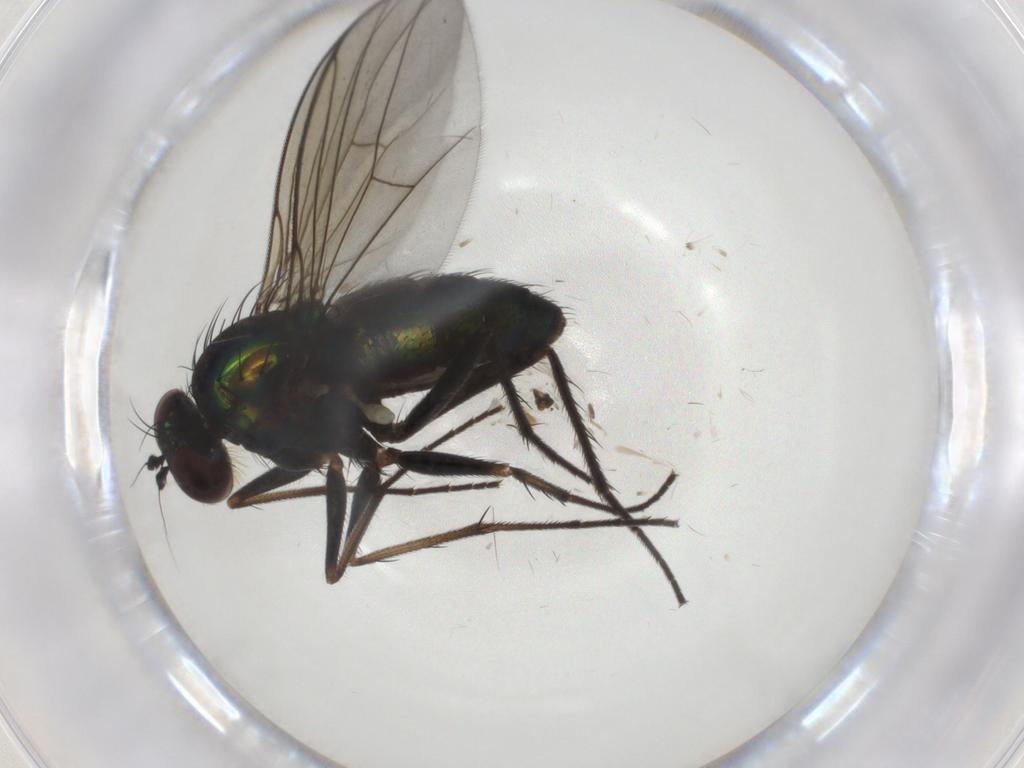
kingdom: Animalia
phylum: Arthropoda
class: Insecta
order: Diptera
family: Dolichopodidae
